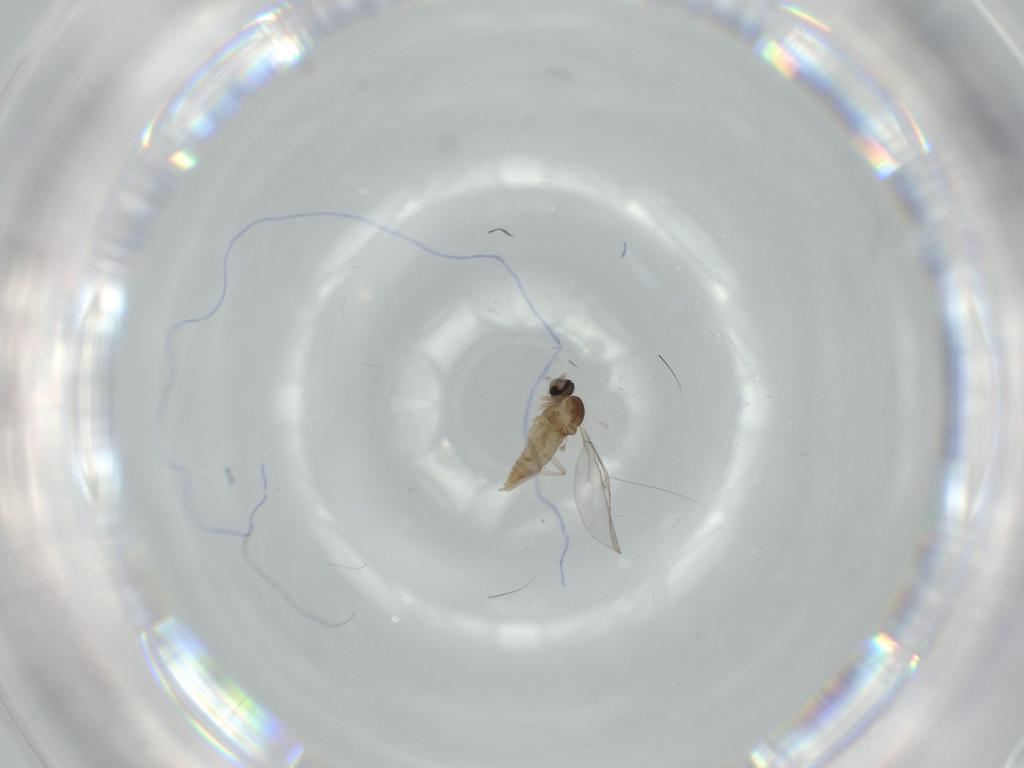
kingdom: Animalia
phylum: Arthropoda
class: Insecta
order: Diptera
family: Cecidomyiidae
